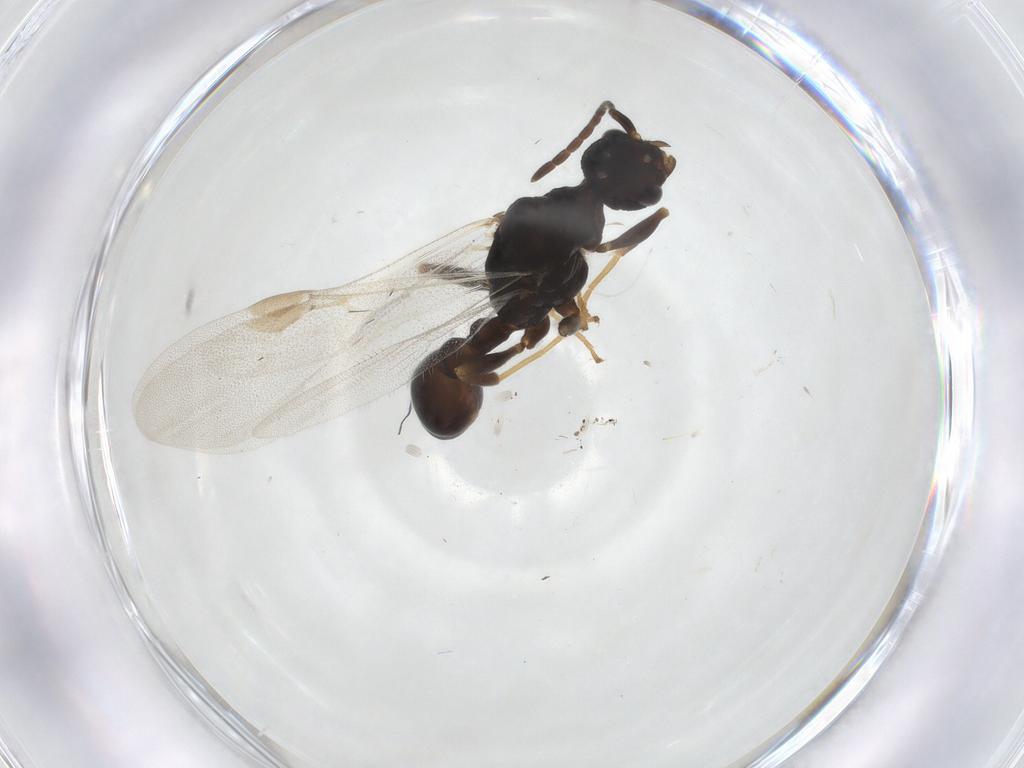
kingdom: Animalia
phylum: Arthropoda
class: Insecta
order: Hymenoptera
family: Formicidae
